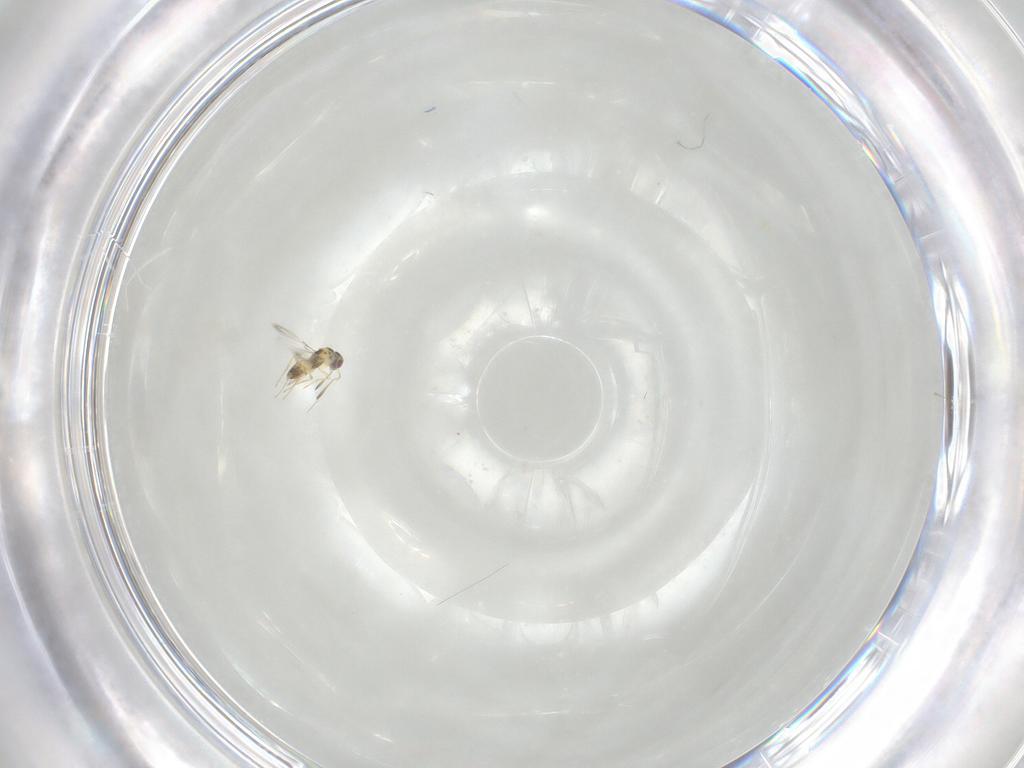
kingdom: Animalia
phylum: Arthropoda
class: Insecta
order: Hymenoptera
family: Mymaridae
